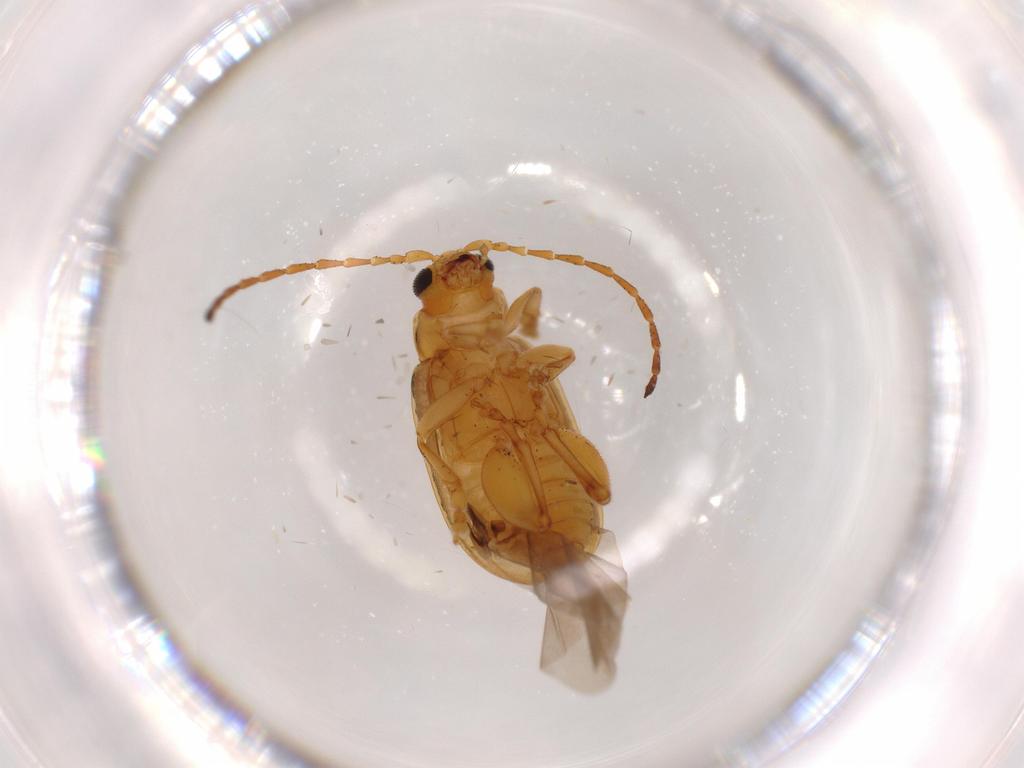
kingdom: Animalia
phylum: Arthropoda
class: Insecta
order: Coleoptera
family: Chrysomelidae
